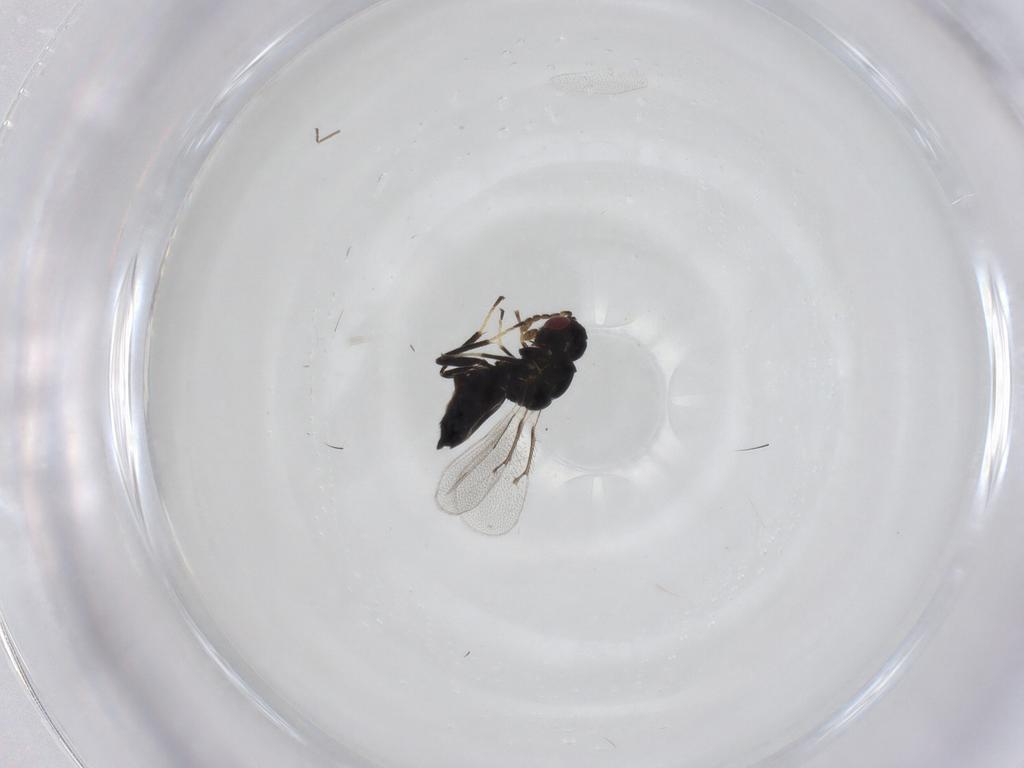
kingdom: Animalia
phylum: Arthropoda
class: Insecta
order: Hymenoptera
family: Eulophidae
